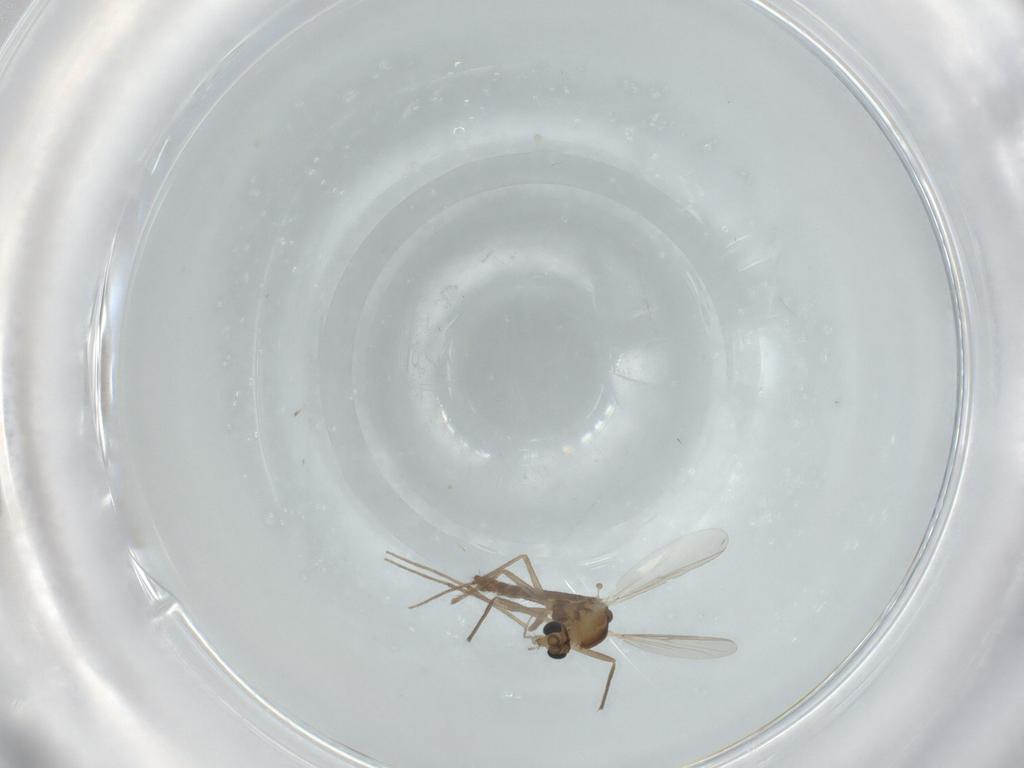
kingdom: Animalia
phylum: Arthropoda
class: Insecta
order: Diptera
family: Chironomidae
